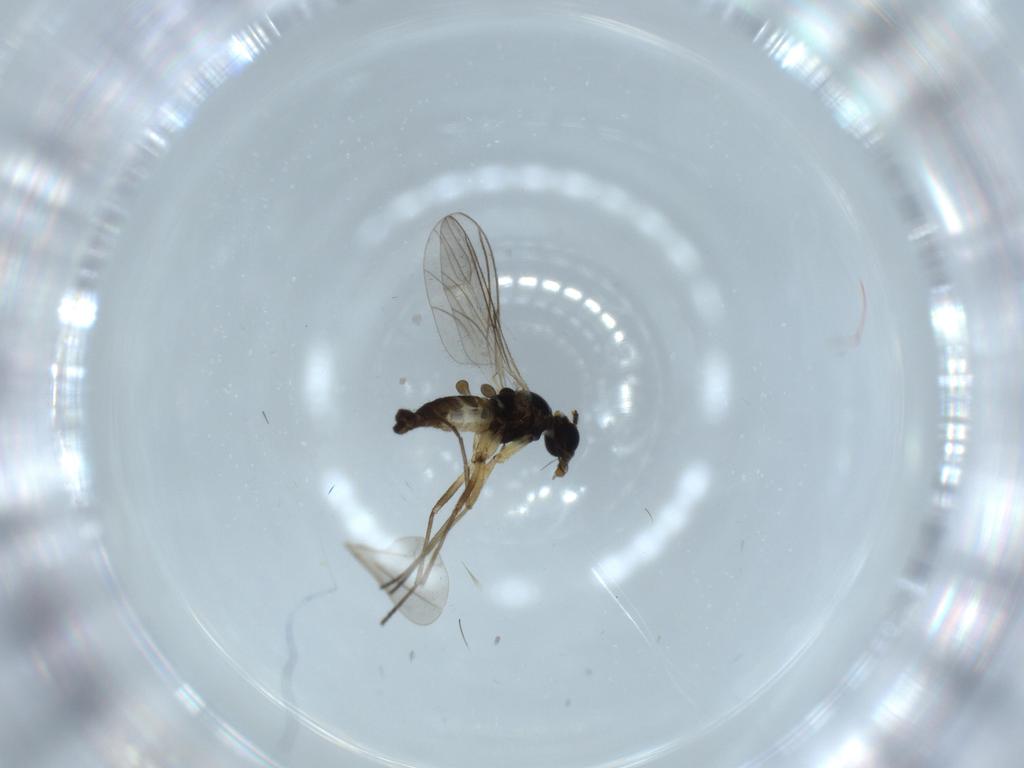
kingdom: Animalia
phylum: Arthropoda
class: Insecta
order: Diptera
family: Sciaridae
